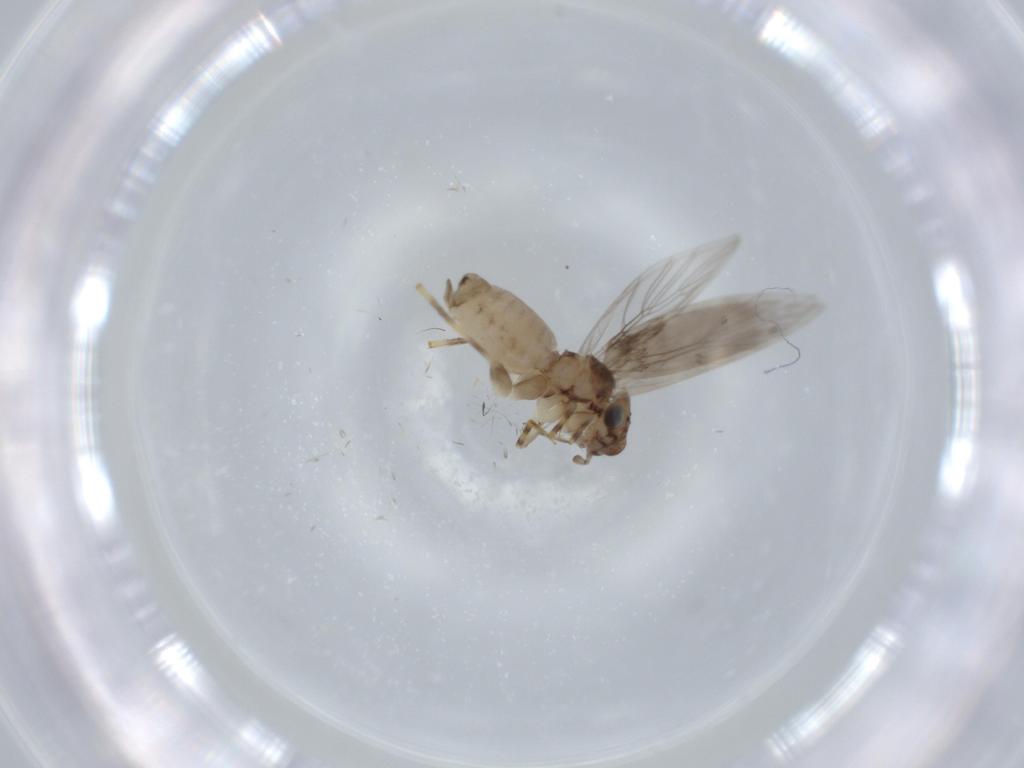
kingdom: Animalia
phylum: Arthropoda
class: Insecta
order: Psocodea
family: Lepidopsocidae
